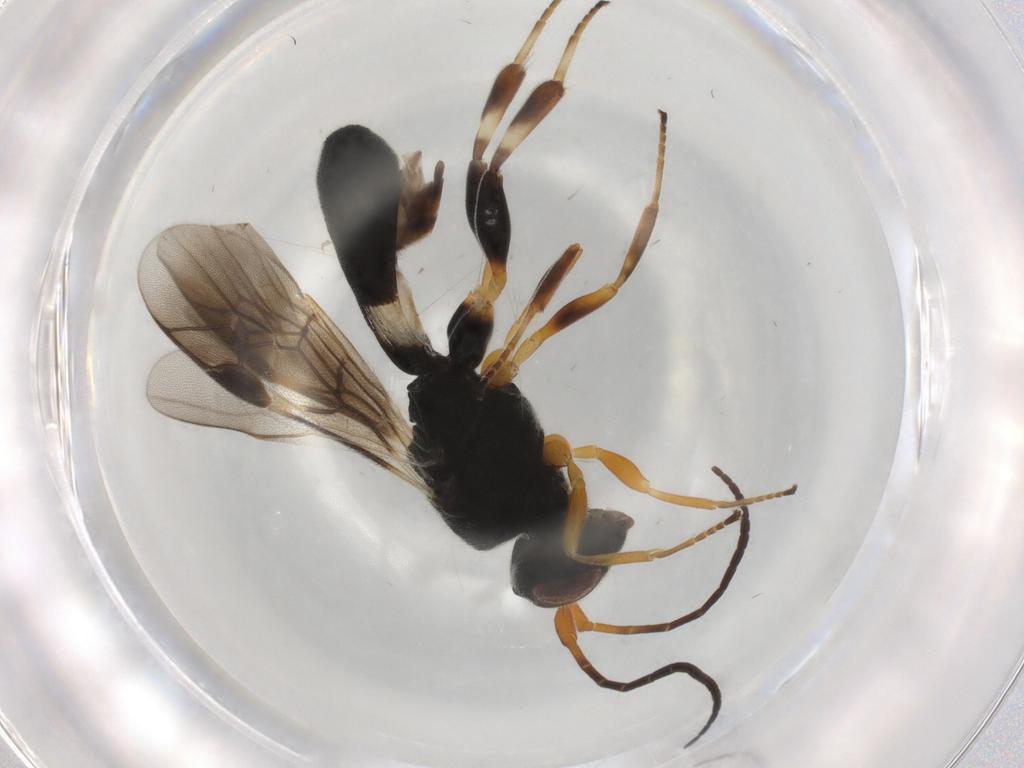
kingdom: Animalia
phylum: Arthropoda
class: Insecta
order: Hymenoptera
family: Braconidae
